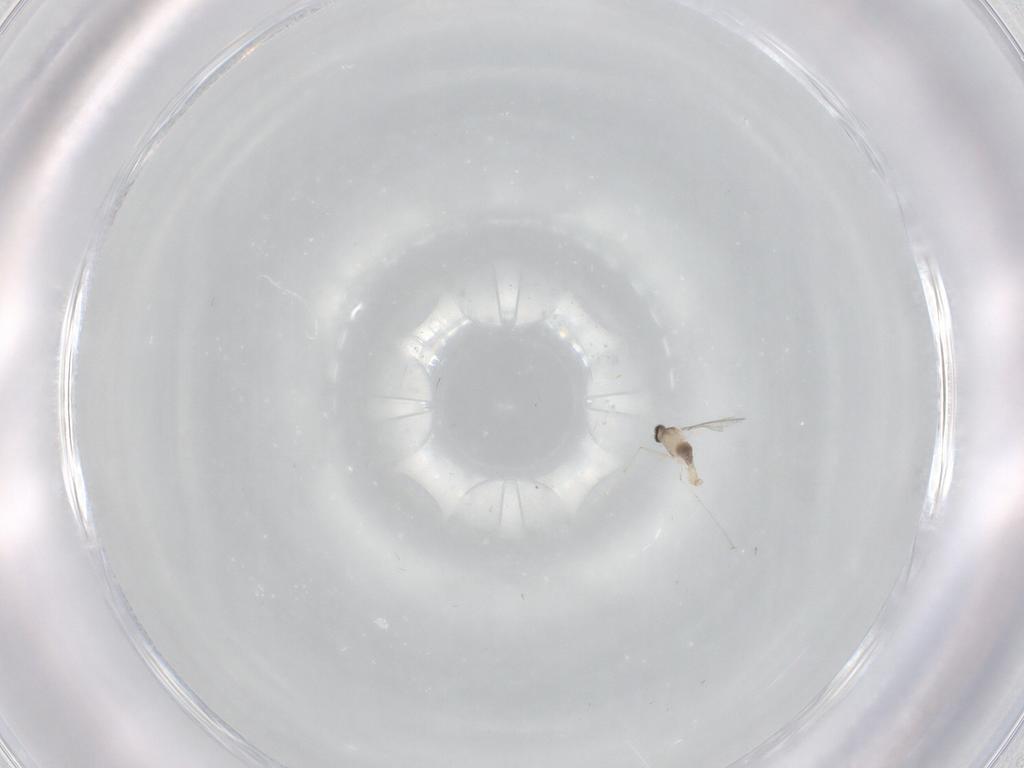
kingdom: Animalia
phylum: Arthropoda
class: Insecta
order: Diptera
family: Cecidomyiidae
